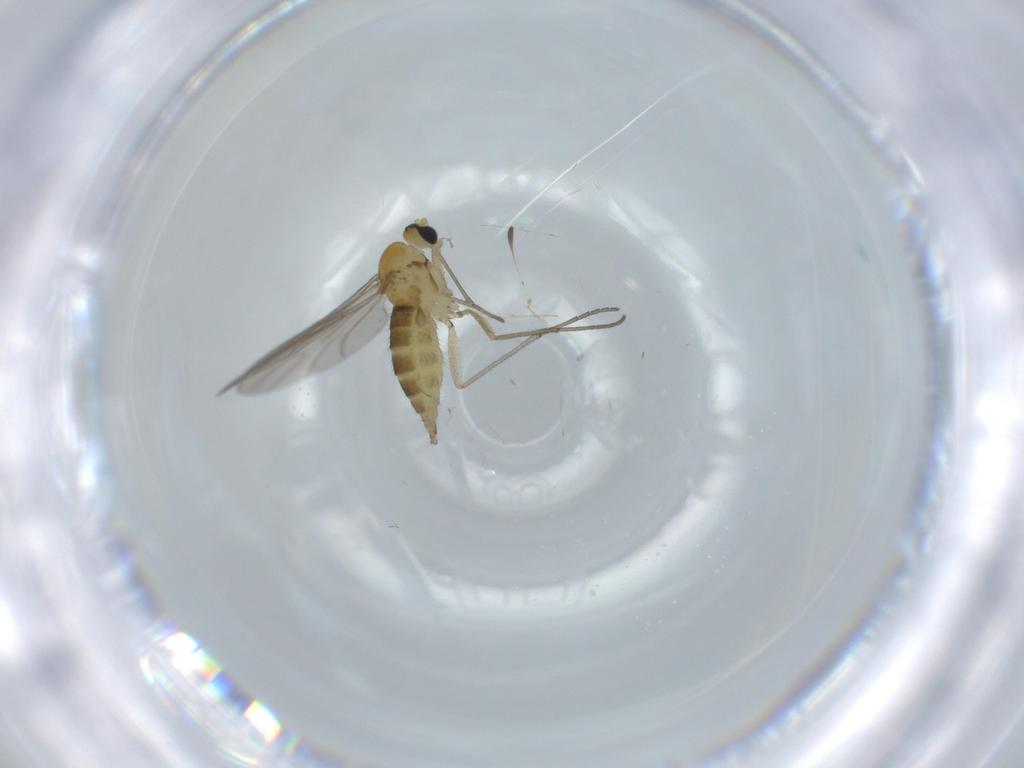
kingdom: Animalia
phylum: Arthropoda
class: Insecta
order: Diptera
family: Sciaridae
